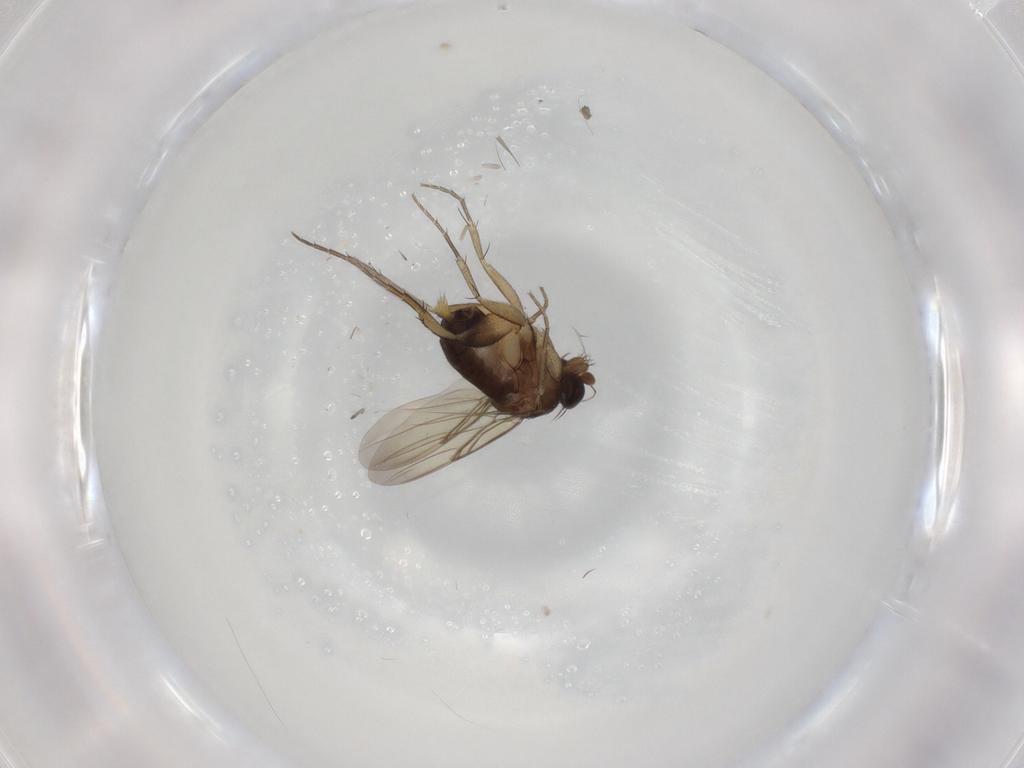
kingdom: Animalia
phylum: Arthropoda
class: Insecta
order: Diptera
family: Phoridae
